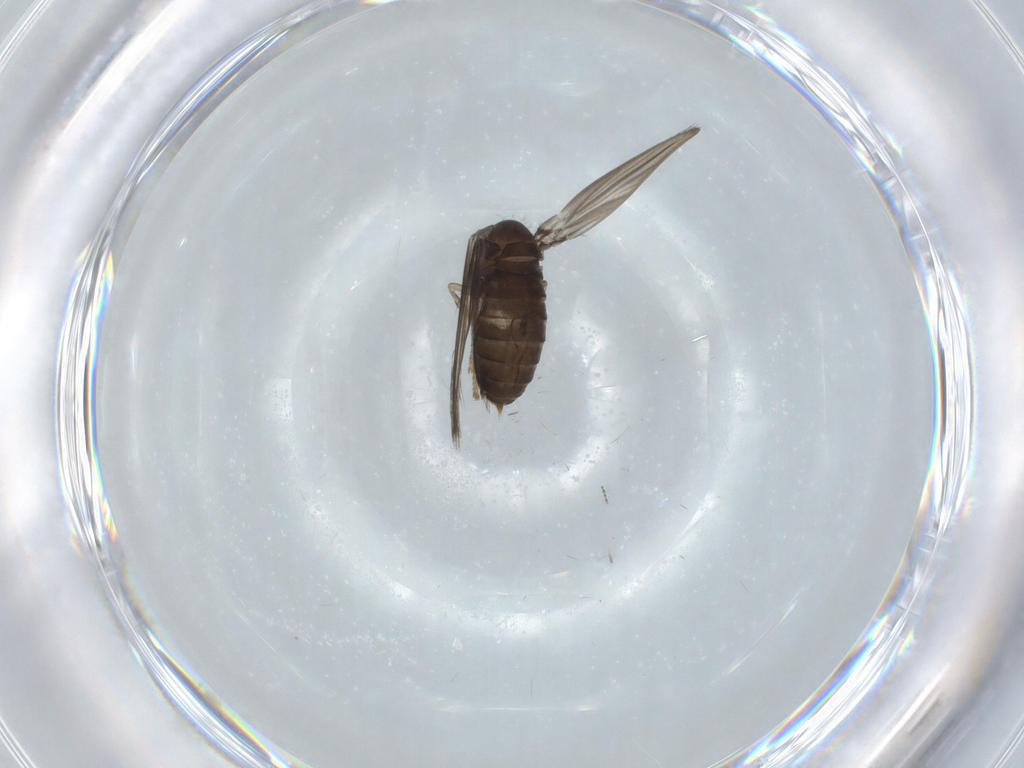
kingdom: Animalia
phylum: Arthropoda
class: Insecta
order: Diptera
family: Psychodidae
